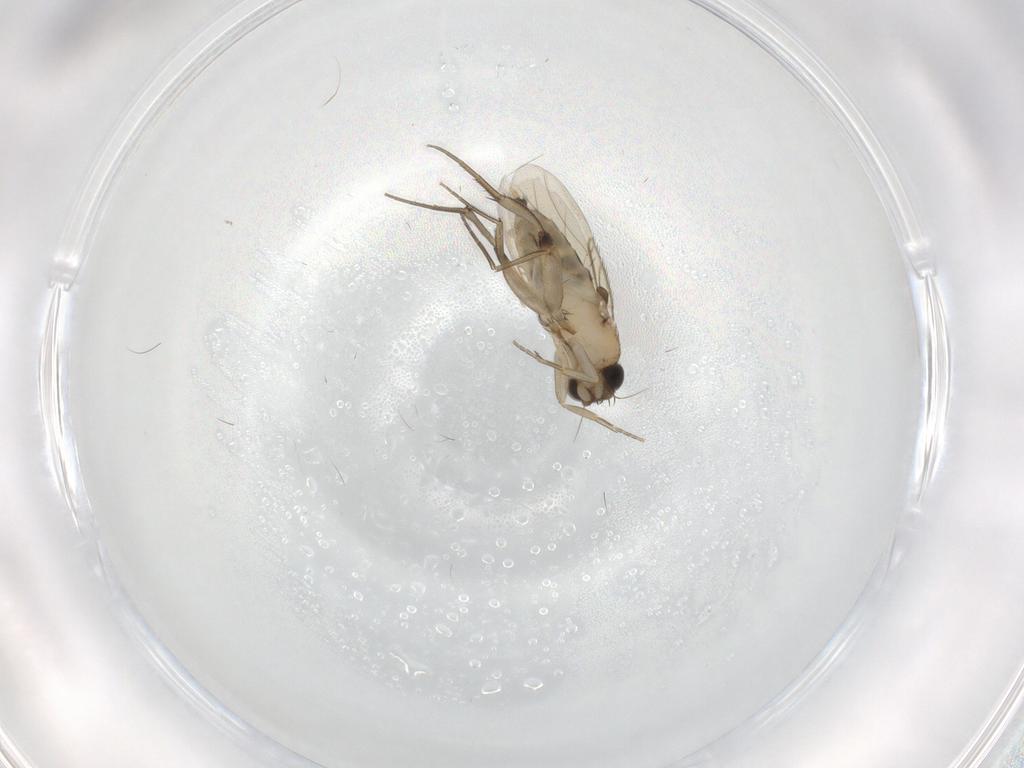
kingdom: Animalia
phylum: Arthropoda
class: Insecta
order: Diptera
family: Phoridae
